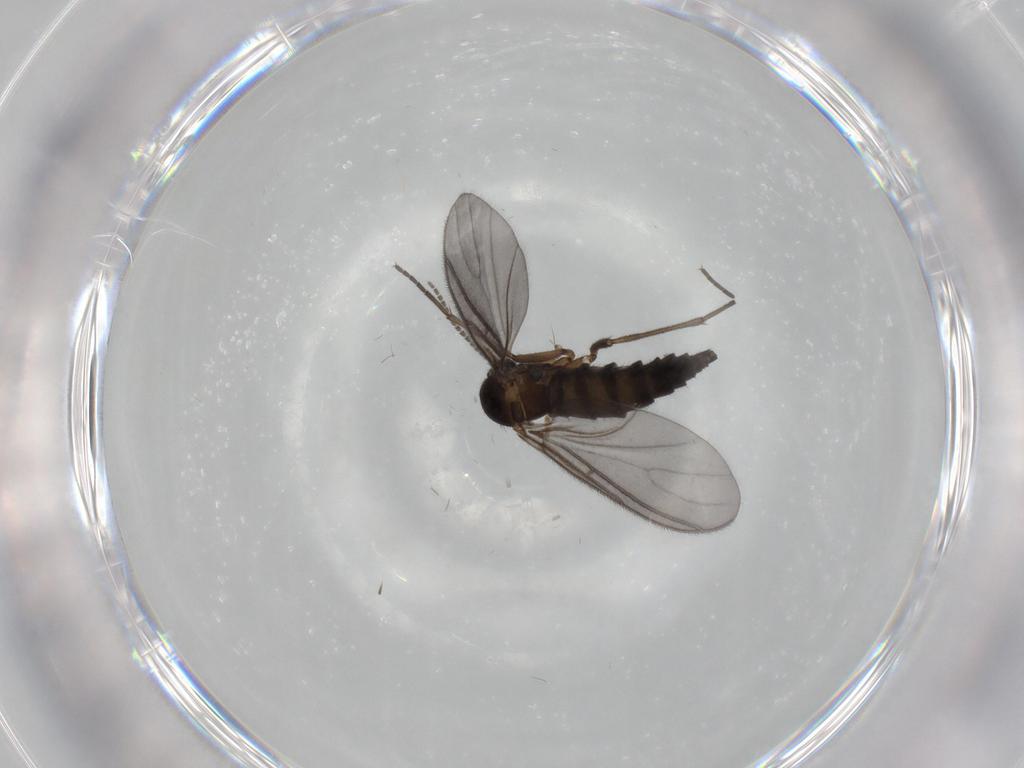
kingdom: Animalia
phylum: Arthropoda
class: Insecta
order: Diptera
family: Sciaridae
